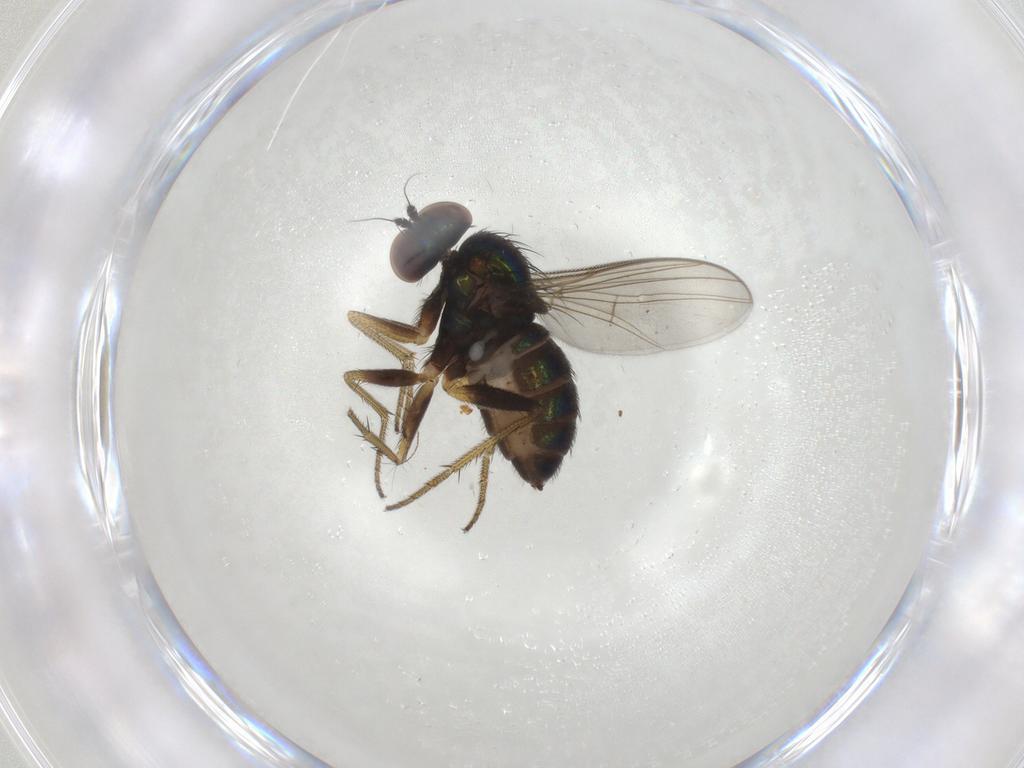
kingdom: Animalia
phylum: Arthropoda
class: Insecta
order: Diptera
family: Dolichopodidae
